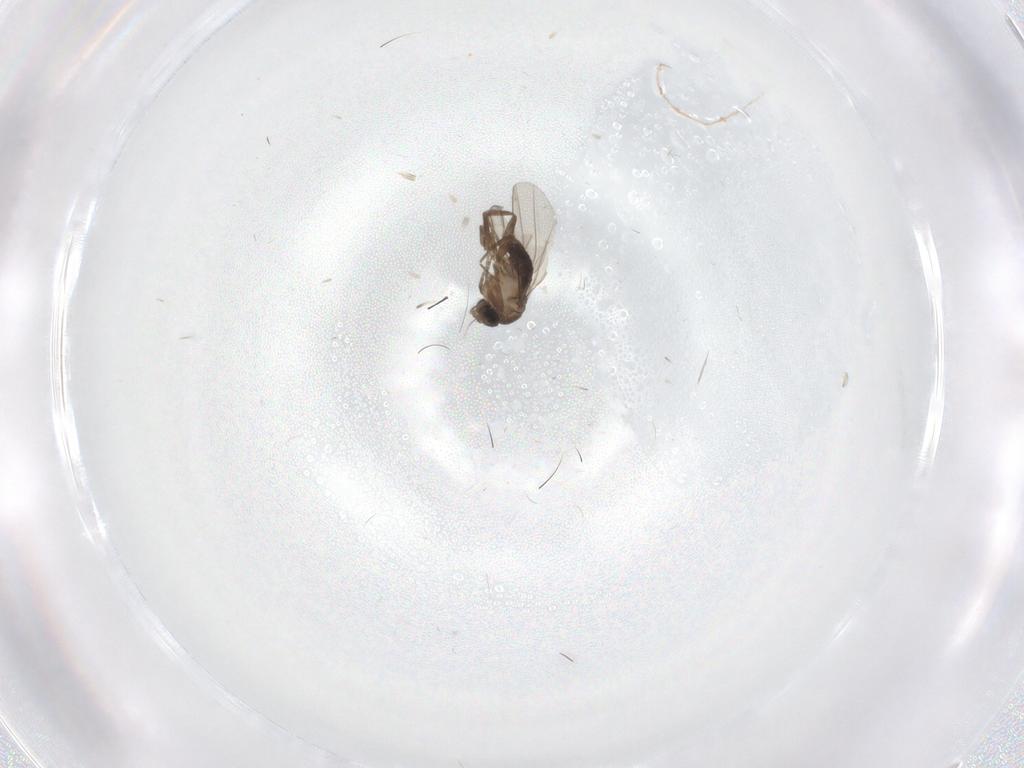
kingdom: Animalia
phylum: Arthropoda
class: Insecta
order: Diptera
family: Phoridae
